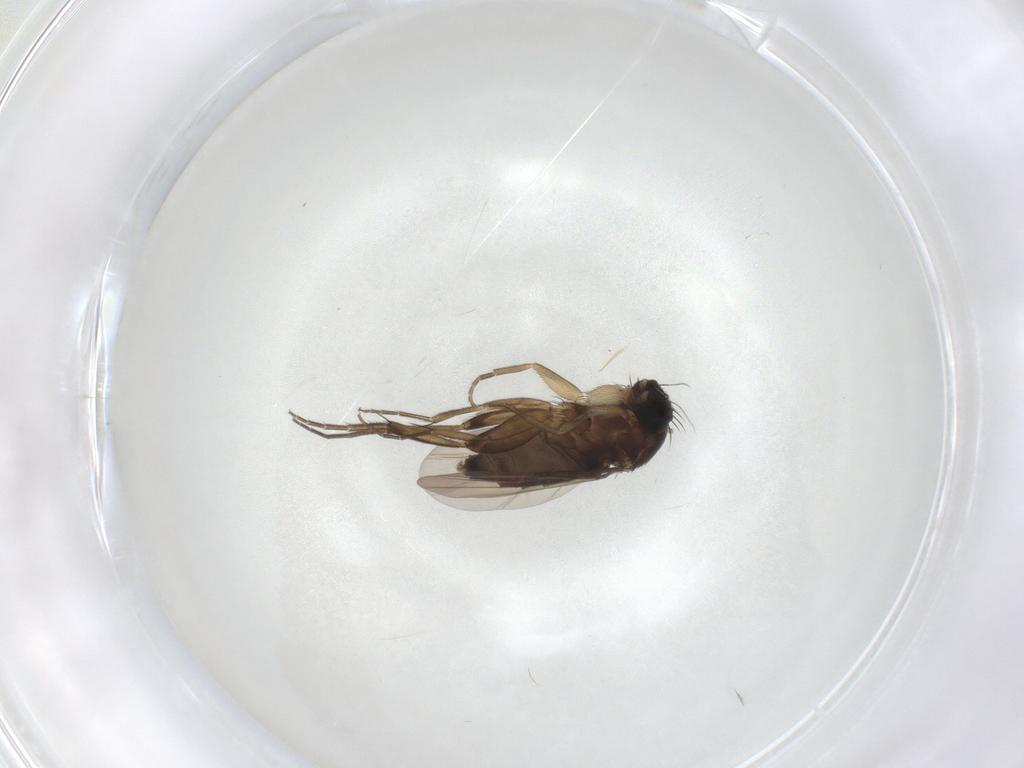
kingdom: Animalia
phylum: Arthropoda
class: Insecta
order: Diptera
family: Phoridae
